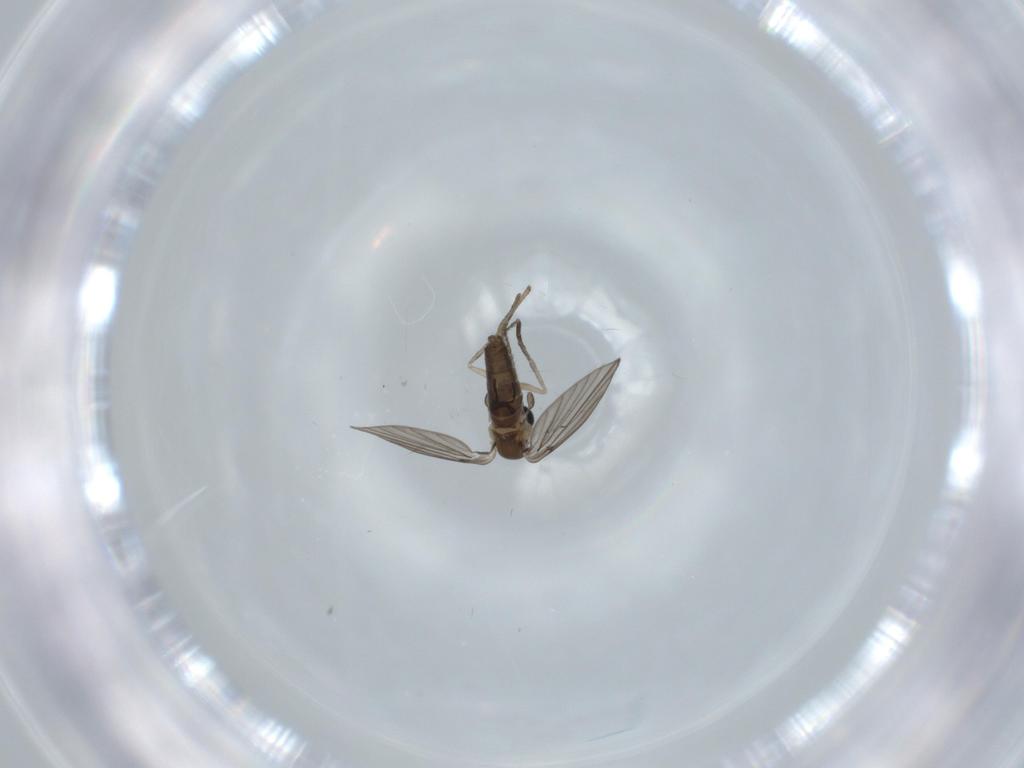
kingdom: Animalia
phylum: Arthropoda
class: Insecta
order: Diptera
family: Psychodidae
